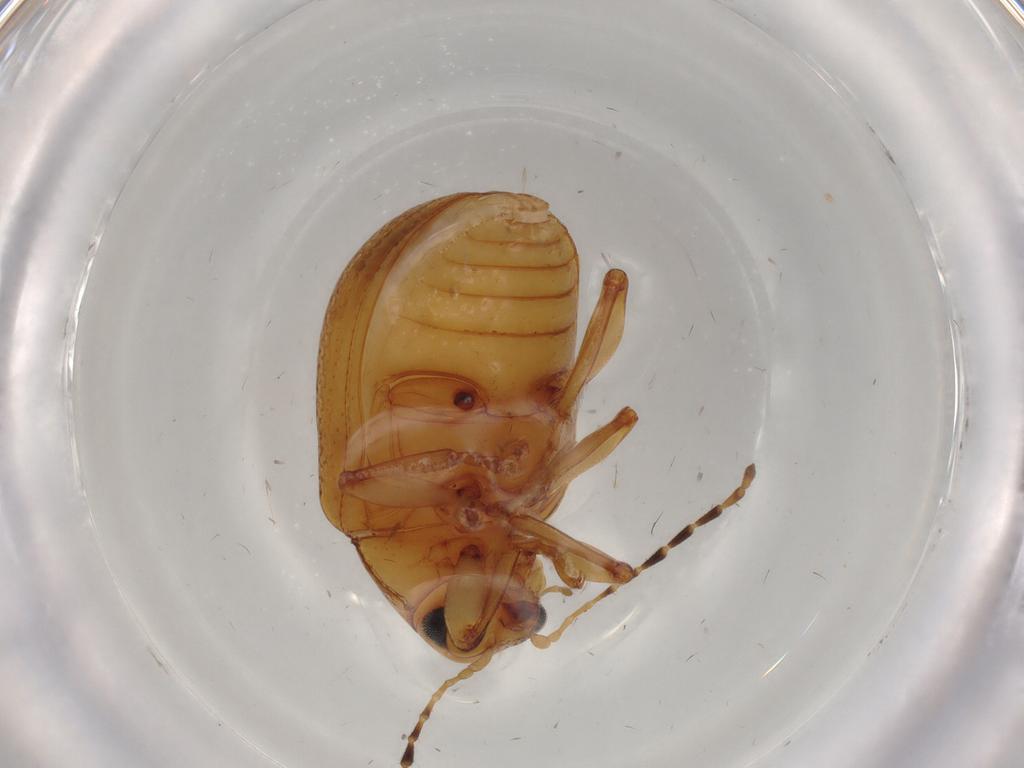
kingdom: Animalia
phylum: Arthropoda
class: Insecta
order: Coleoptera
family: Chrysomelidae
